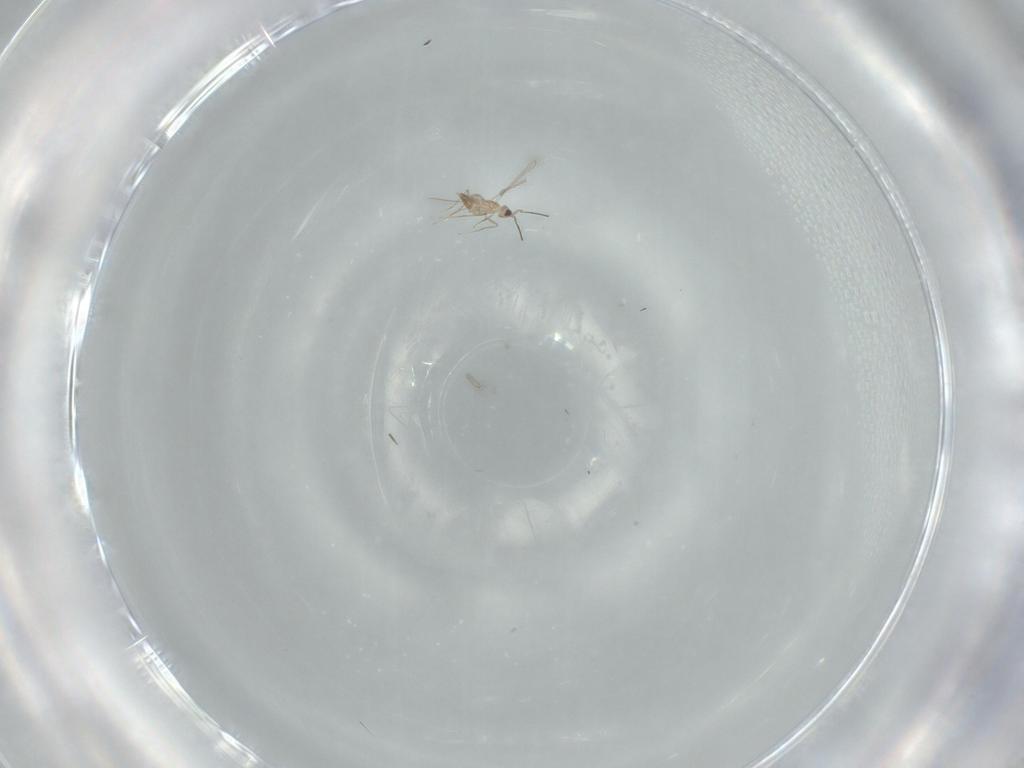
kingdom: Animalia
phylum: Arthropoda
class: Insecta
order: Hymenoptera
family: Mymaridae
